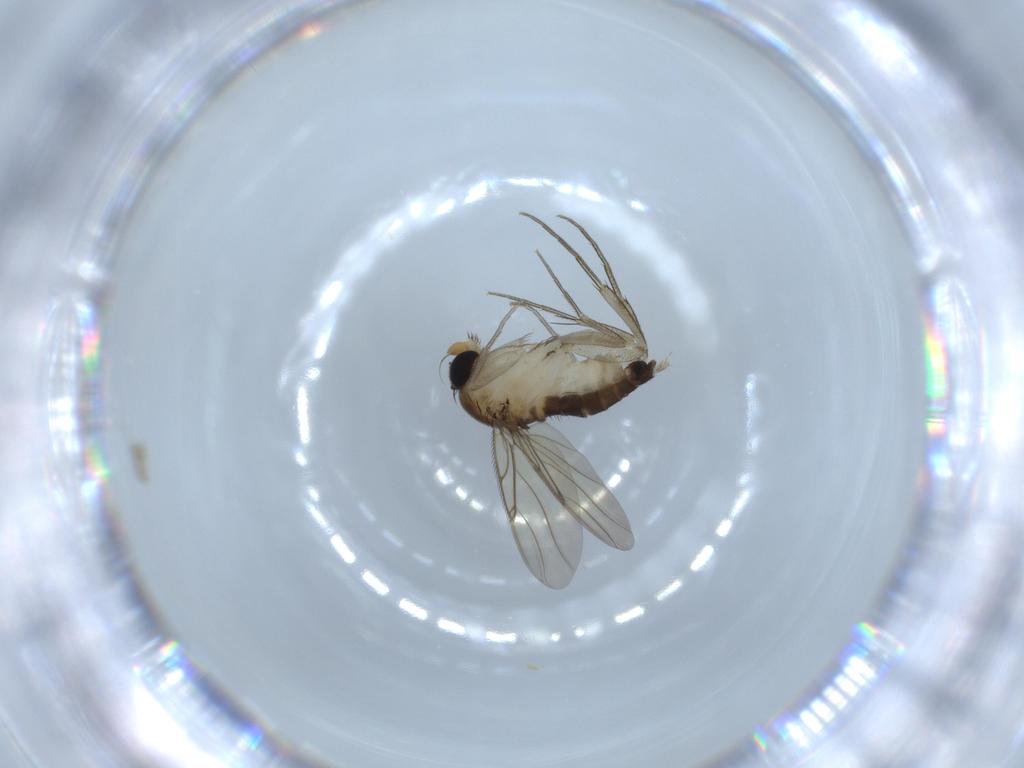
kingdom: Animalia
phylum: Arthropoda
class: Insecta
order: Diptera
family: Phoridae
